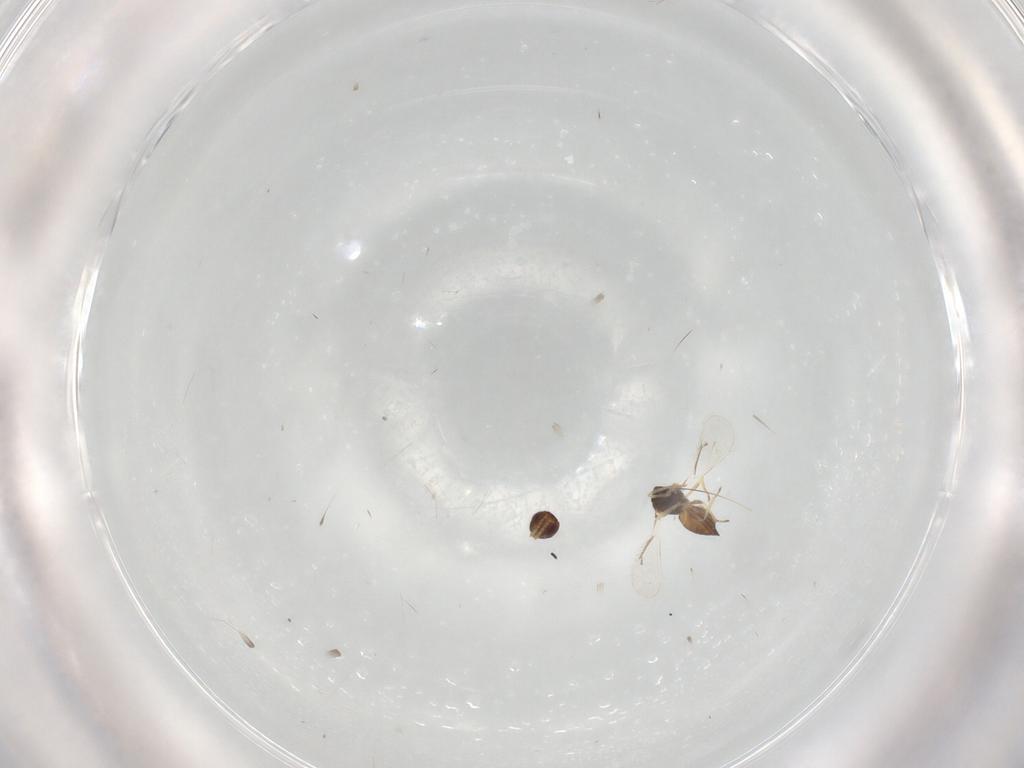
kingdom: Animalia
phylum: Arthropoda
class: Insecta
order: Hymenoptera
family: Eulophidae
